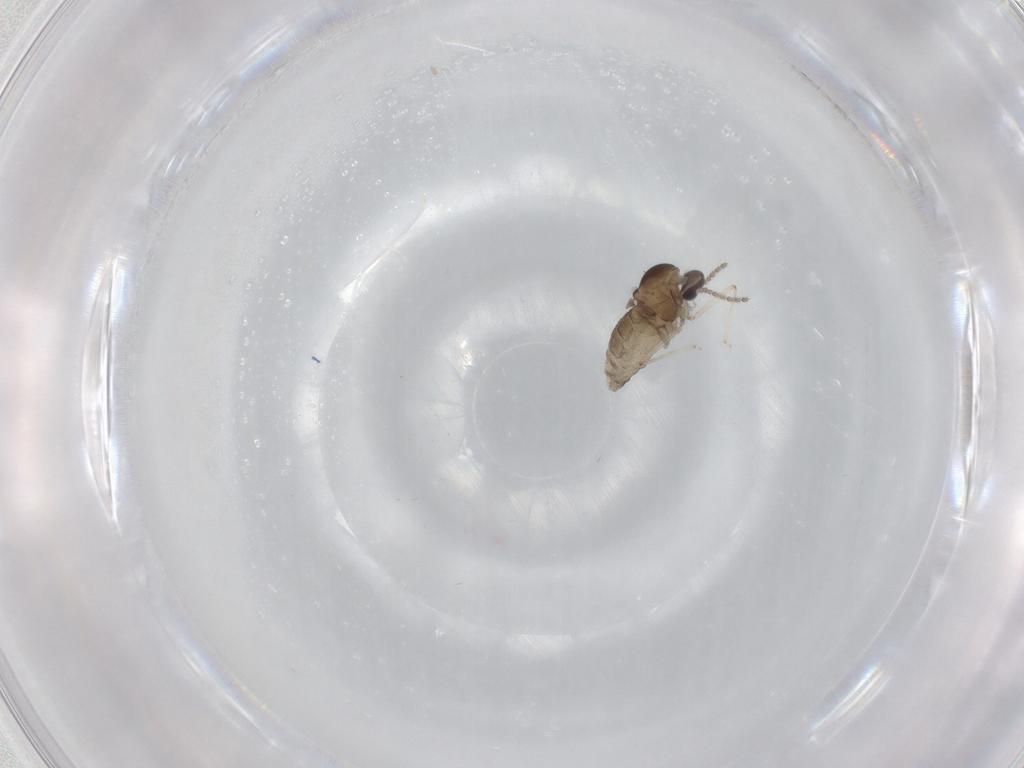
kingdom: Animalia
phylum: Arthropoda
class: Insecta
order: Diptera
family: Cecidomyiidae
